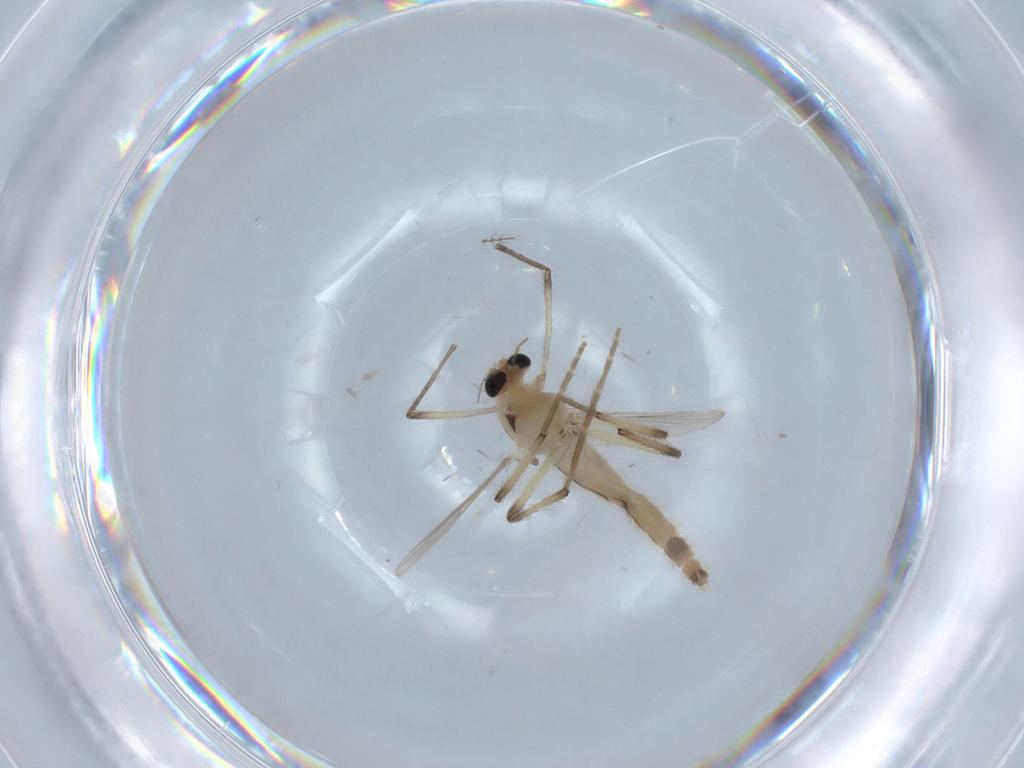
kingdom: Animalia
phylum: Arthropoda
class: Insecta
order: Diptera
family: Chironomidae
